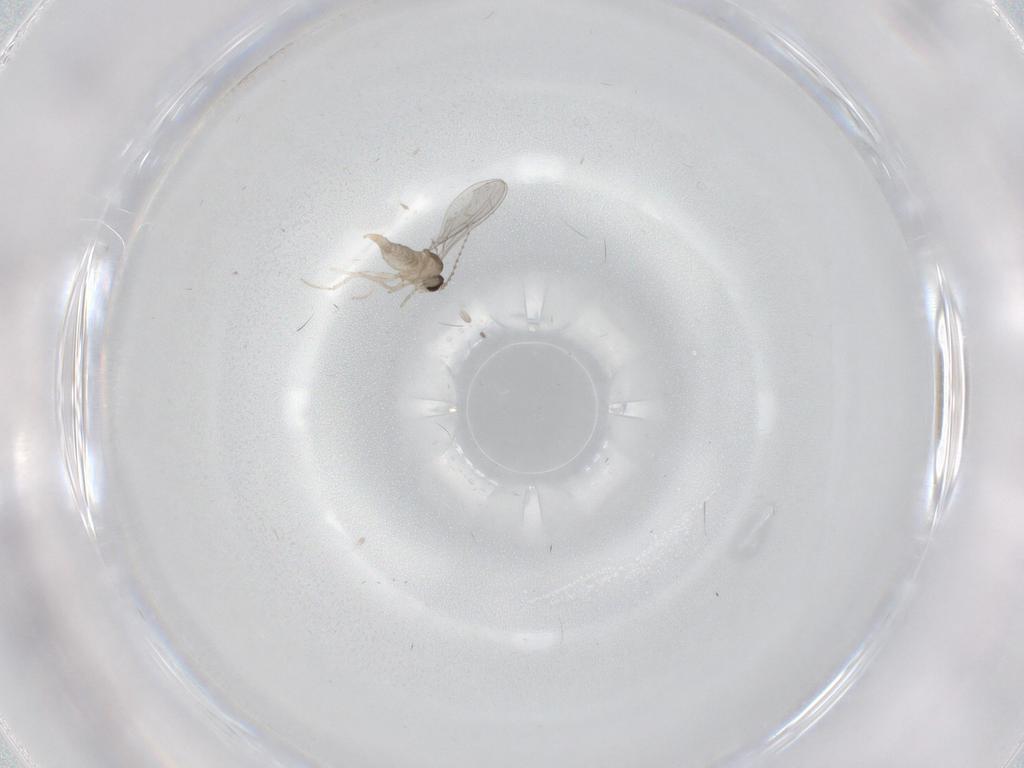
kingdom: Animalia
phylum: Arthropoda
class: Insecta
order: Diptera
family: Cecidomyiidae
